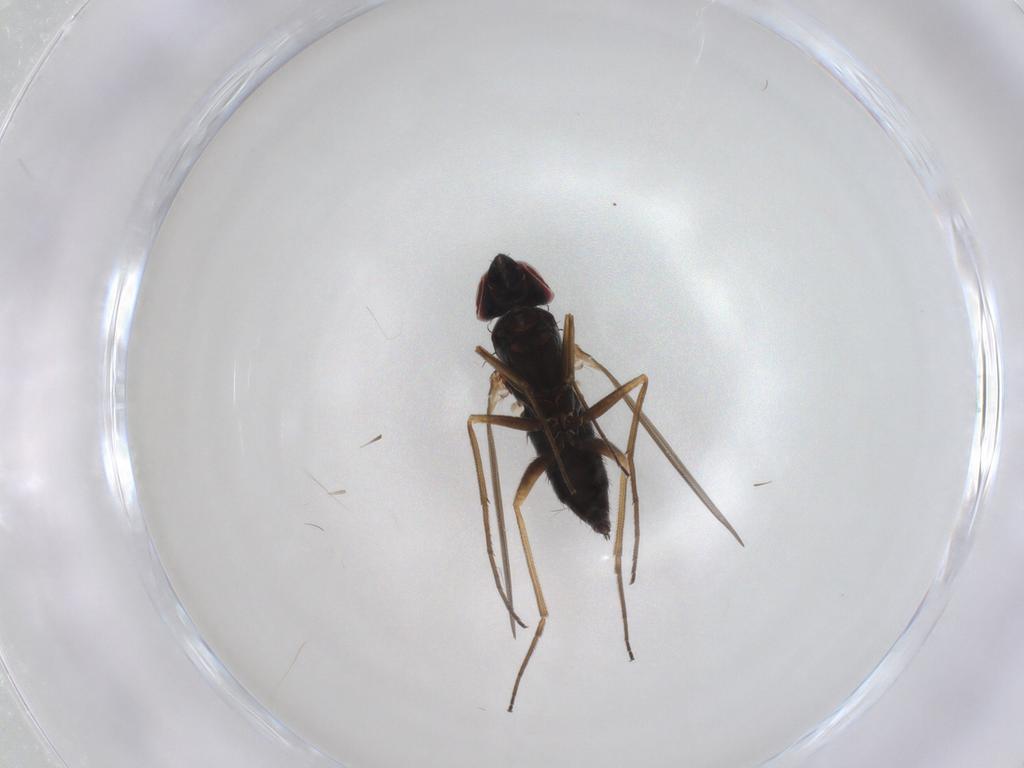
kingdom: Animalia
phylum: Arthropoda
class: Insecta
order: Diptera
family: Dolichopodidae
